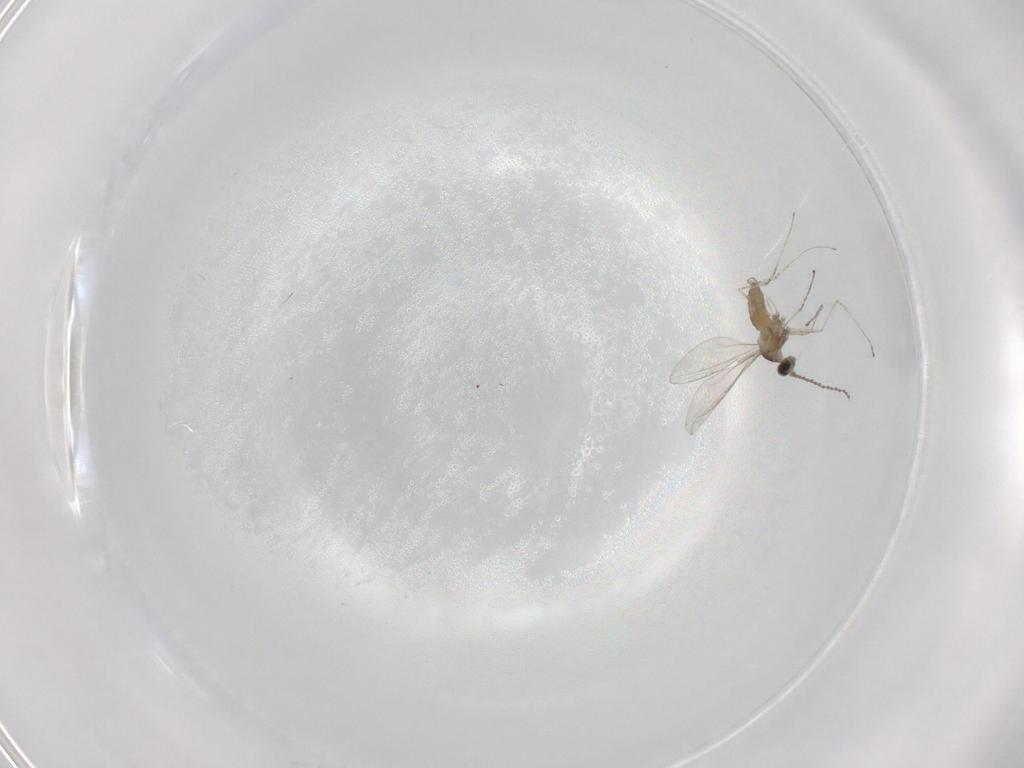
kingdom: Animalia
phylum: Arthropoda
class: Insecta
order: Diptera
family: Cecidomyiidae
